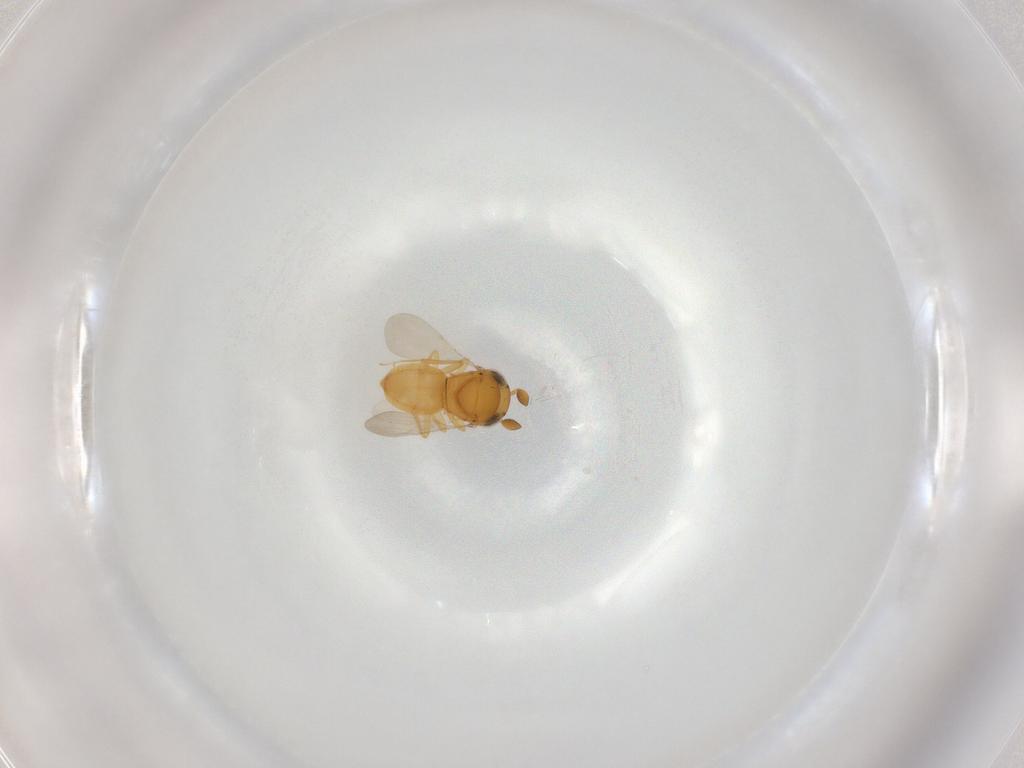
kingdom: Animalia
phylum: Arthropoda
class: Insecta
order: Hymenoptera
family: Scelionidae
